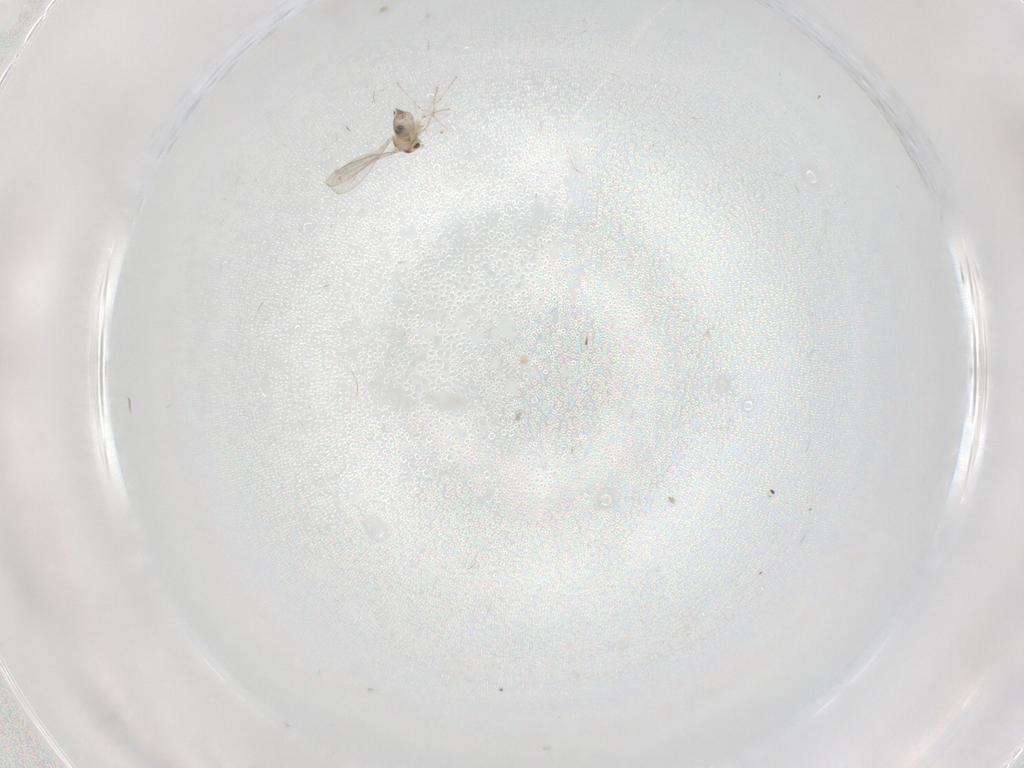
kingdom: Animalia
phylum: Arthropoda
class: Insecta
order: Diptera
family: Cecidomyiidae
